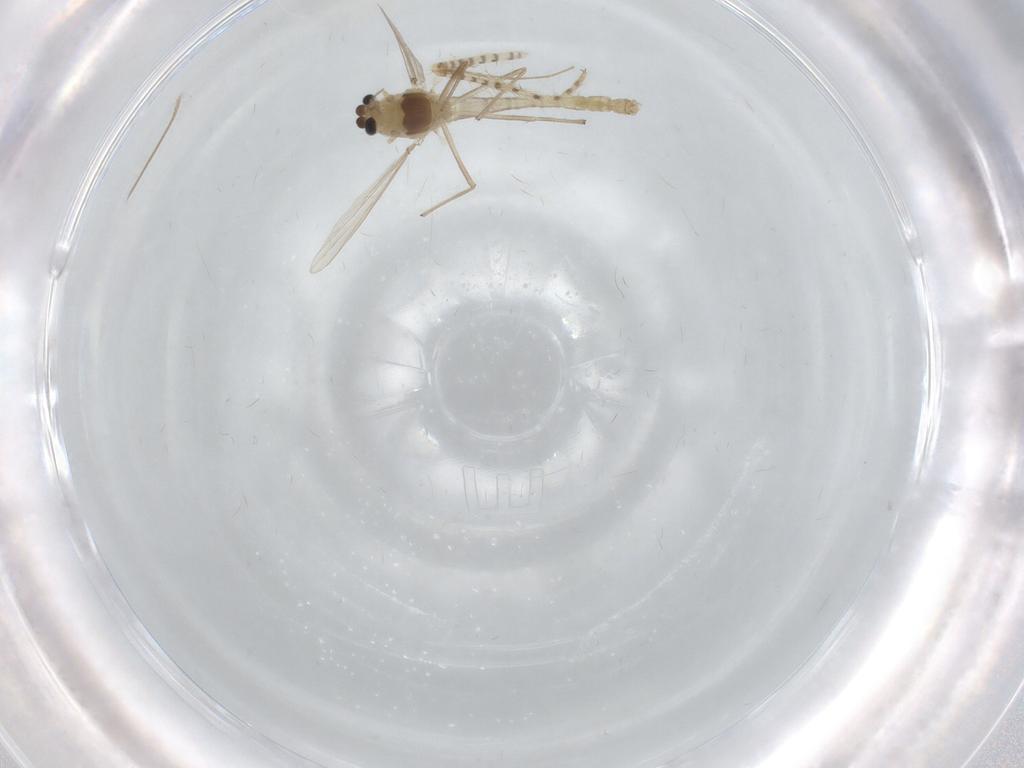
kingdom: Animalia
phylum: Arthropoda
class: Insecta
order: Diptera
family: Chironomidae
